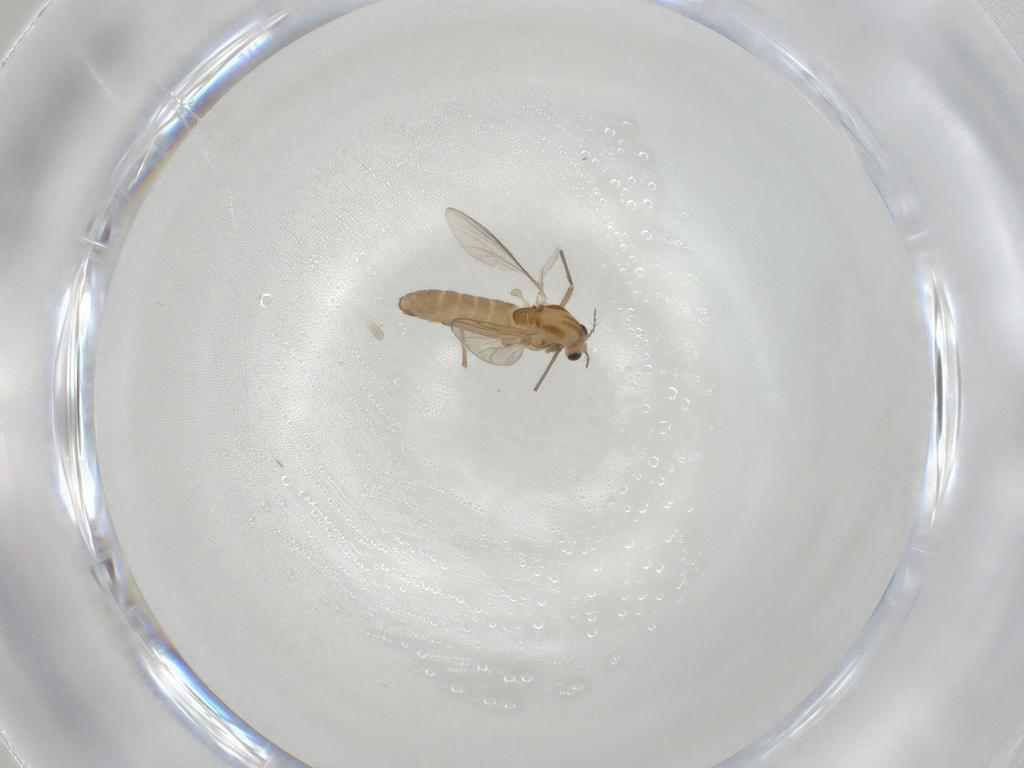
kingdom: Animalia
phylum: Arthropoda
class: Insecta
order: Diptera
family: Chironomidae
